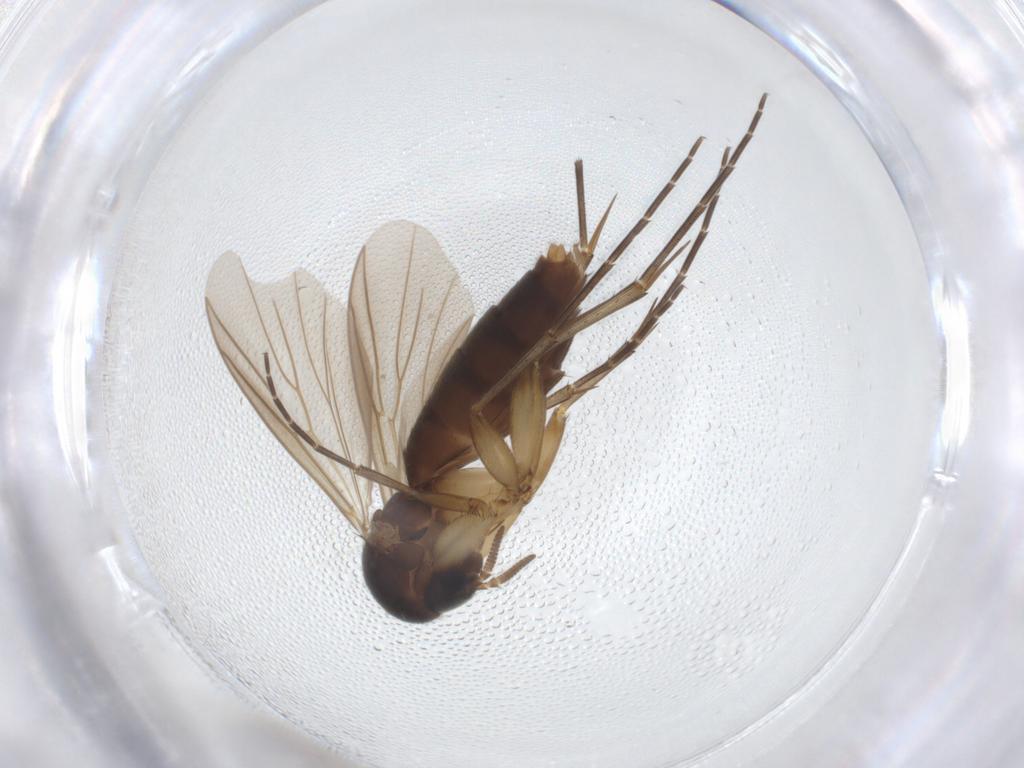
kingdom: Animalia
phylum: Arthropoda
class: Insecta
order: Diptera
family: Mycetophilidae
